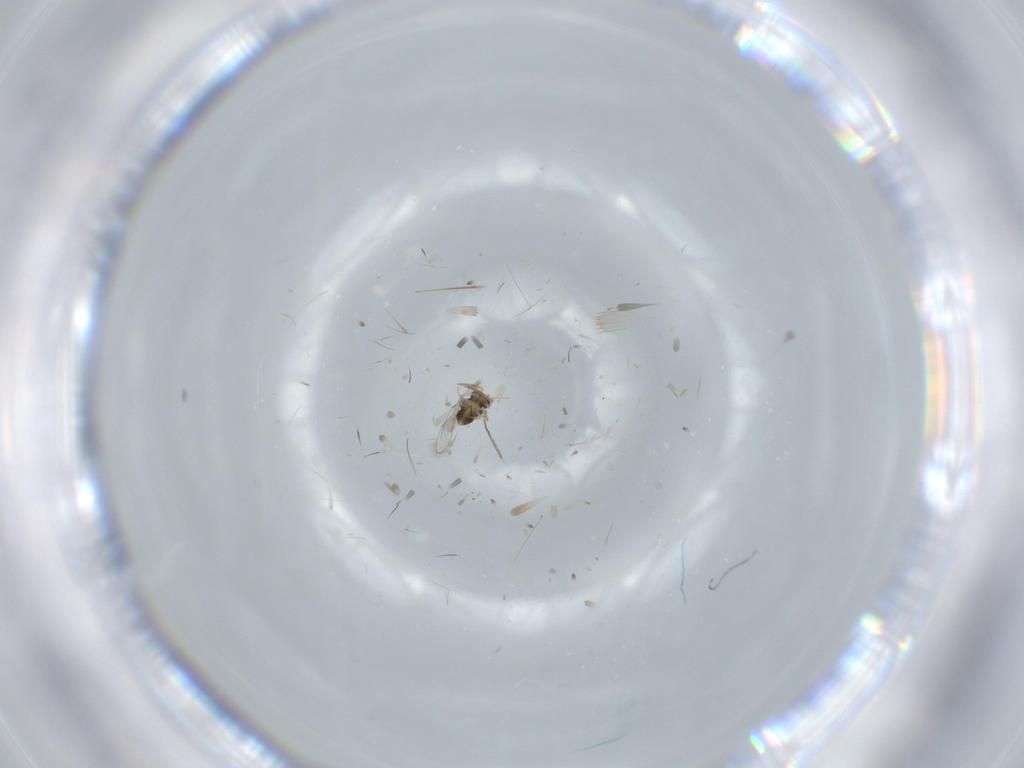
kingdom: Animalia
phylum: Arthropoda
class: Insecta
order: Hymenoptera
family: Aphelinidae
